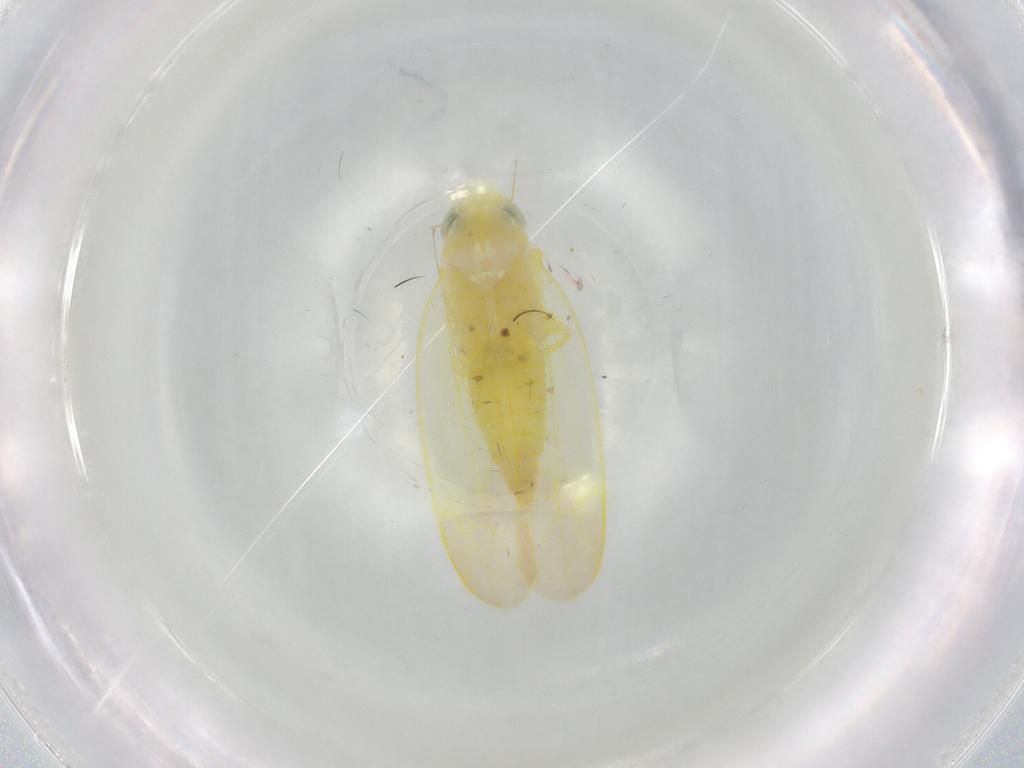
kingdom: Animalia
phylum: Arthropoda
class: Insecta
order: Hemiptera
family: Cicadellidae
